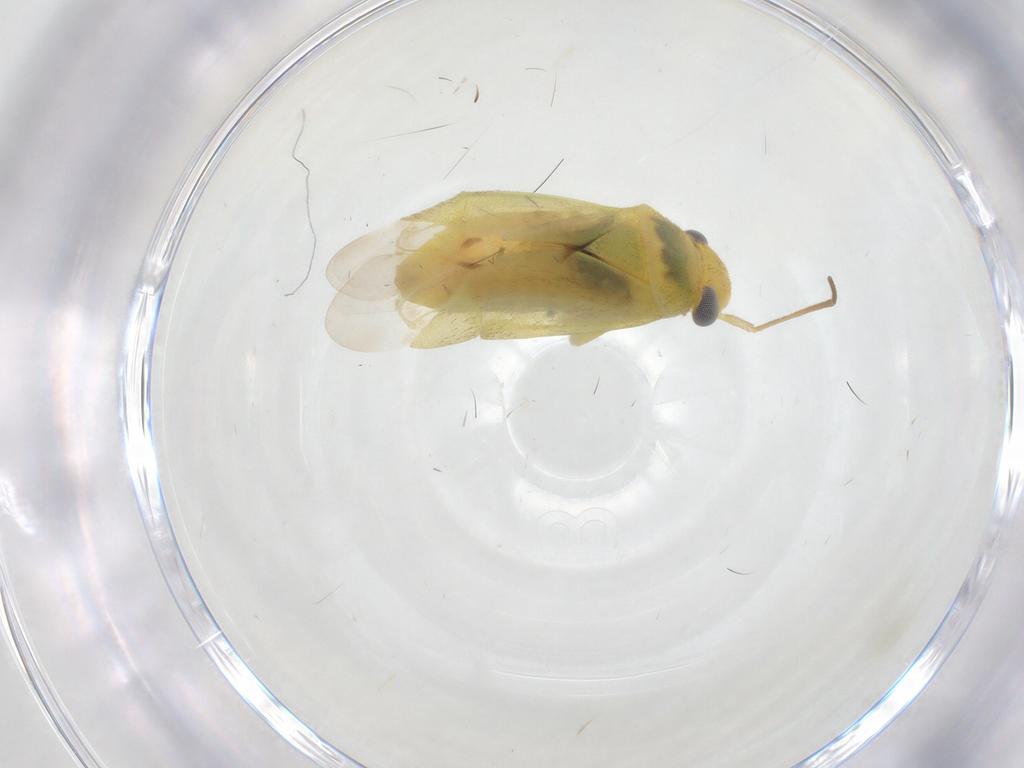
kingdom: Animalia
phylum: Arthropoda
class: Insecta
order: Hemiptera
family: Miridae
